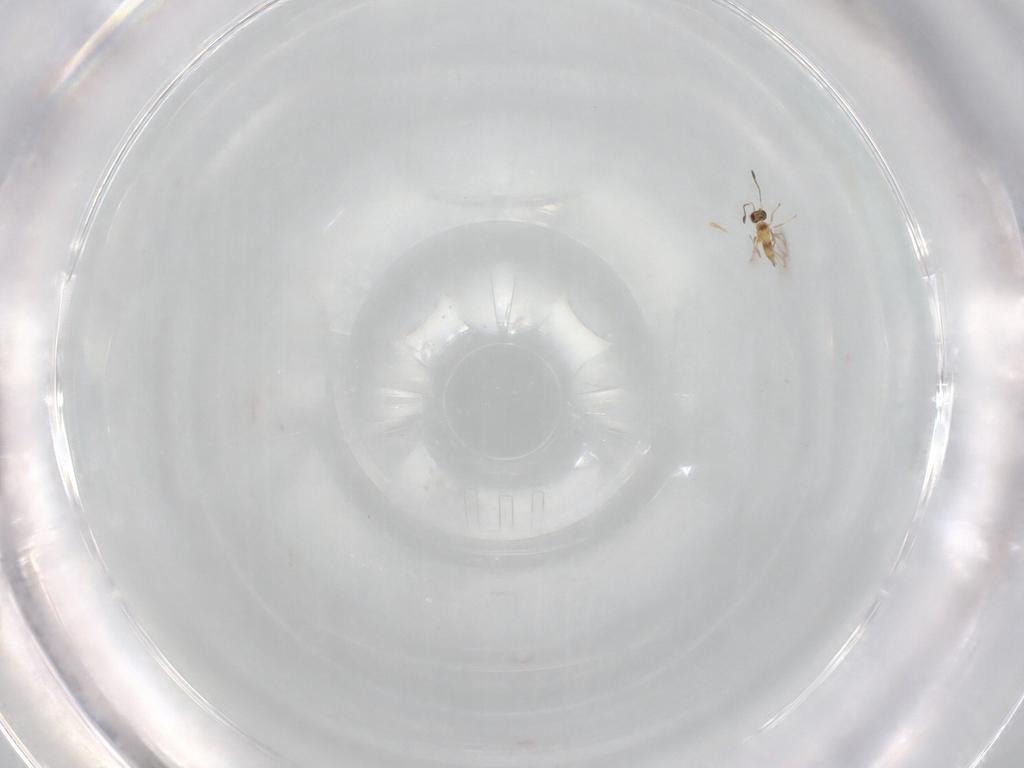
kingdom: Animalia
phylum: Arthropoda
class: Insecta
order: Hymenoptera
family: Mymaridae
